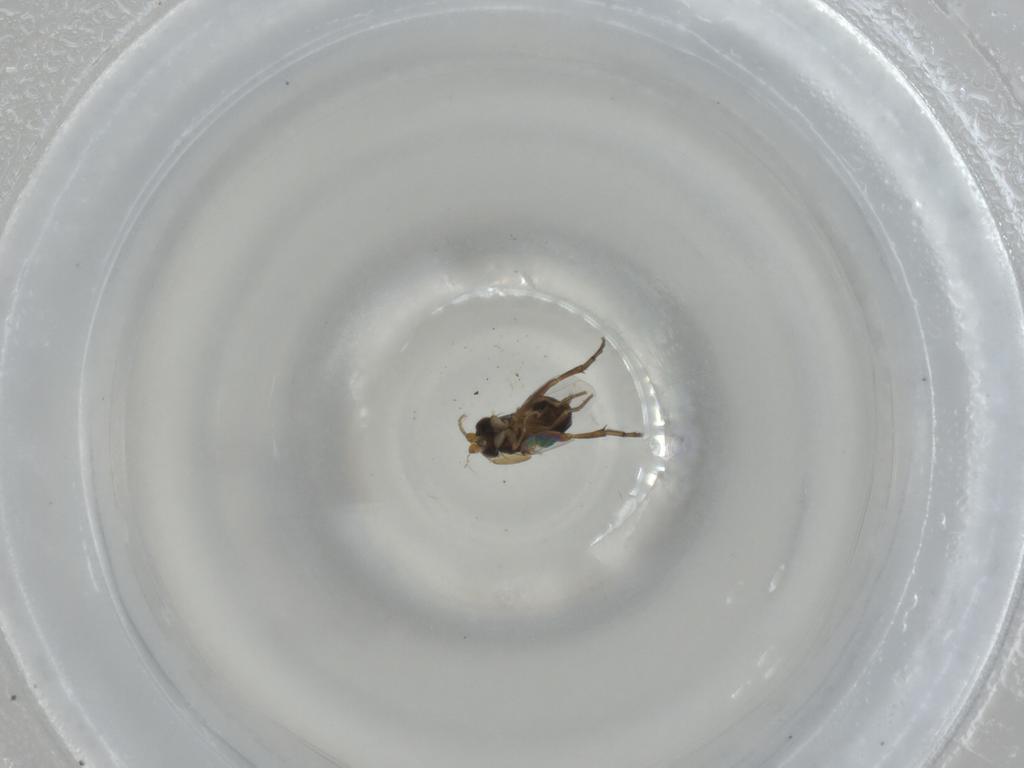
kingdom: Animalia
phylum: Arthropoda
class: Insecta
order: Diptera
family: Phoridae
